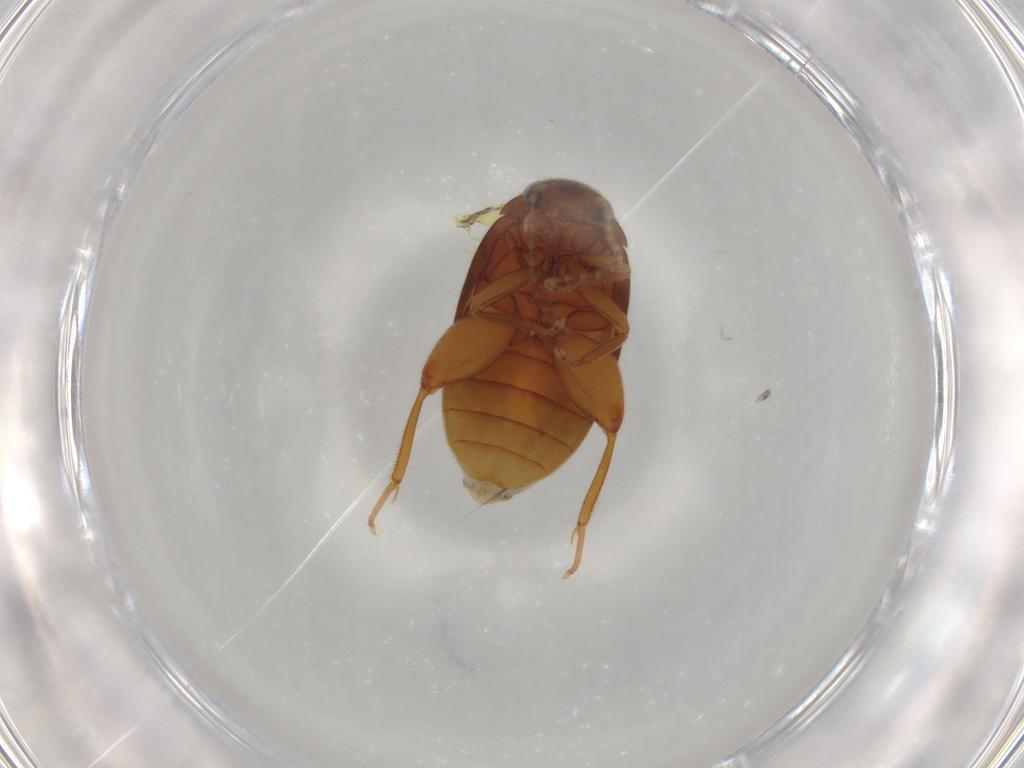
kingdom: Animalia
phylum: Arthropoda
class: Insecta
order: Coleoptera
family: Scirtidae
